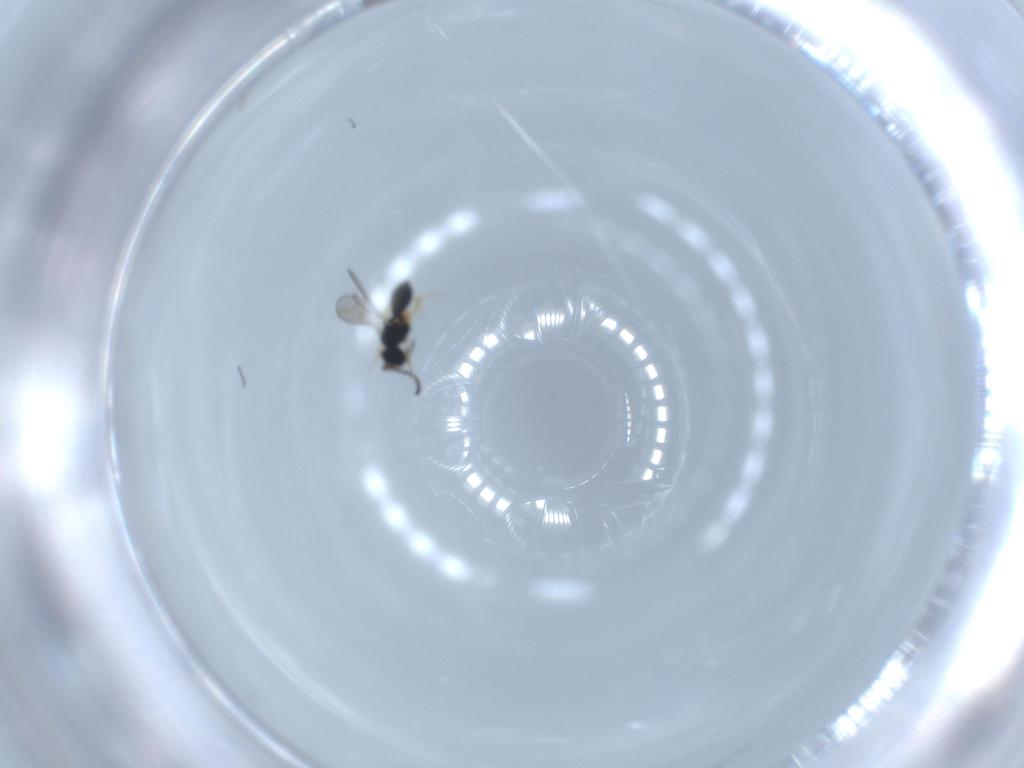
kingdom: Animalia
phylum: Arthropoda
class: Insecta
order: Hymenoptera
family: Scelionidae
